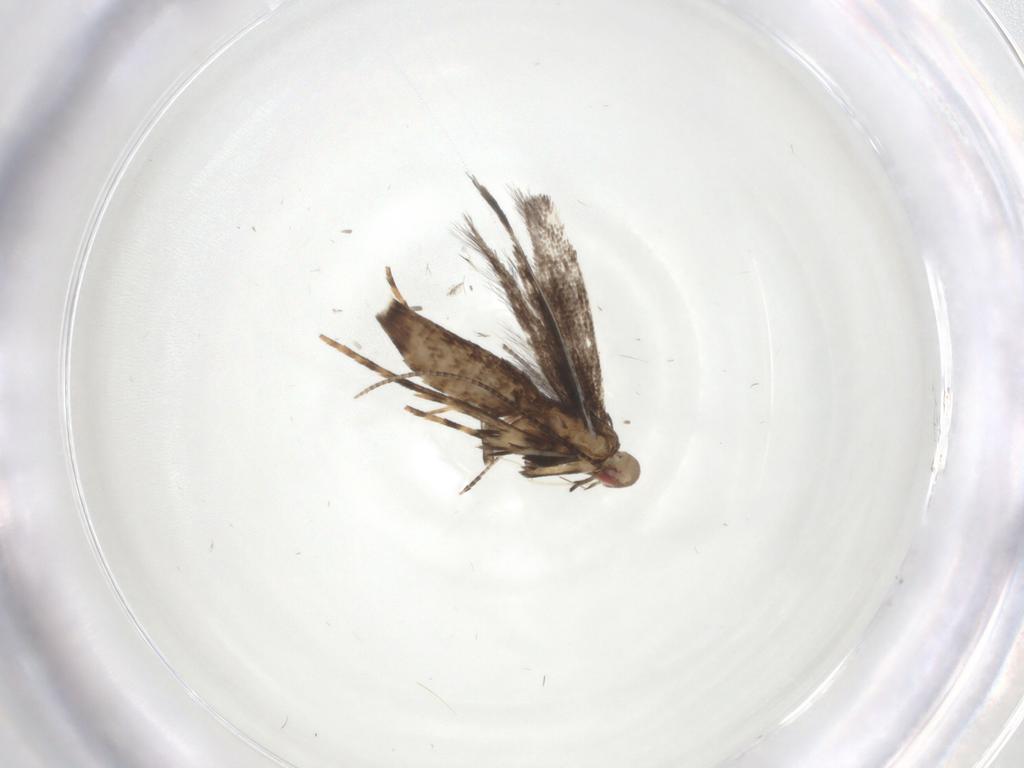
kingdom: Animalia
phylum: Arthropoda
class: Insecta
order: Lepidoptera
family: Gracillariidae
